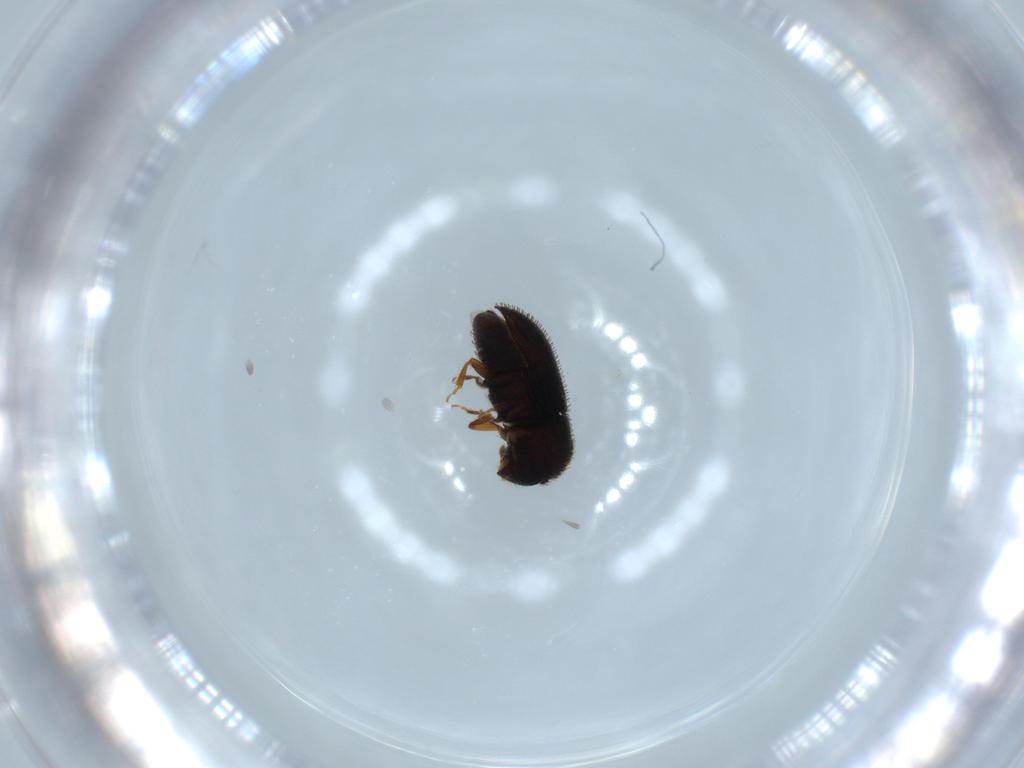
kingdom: Animalia
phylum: Arthropoda
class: Insecta
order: Coleoptera
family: Curculionidae
